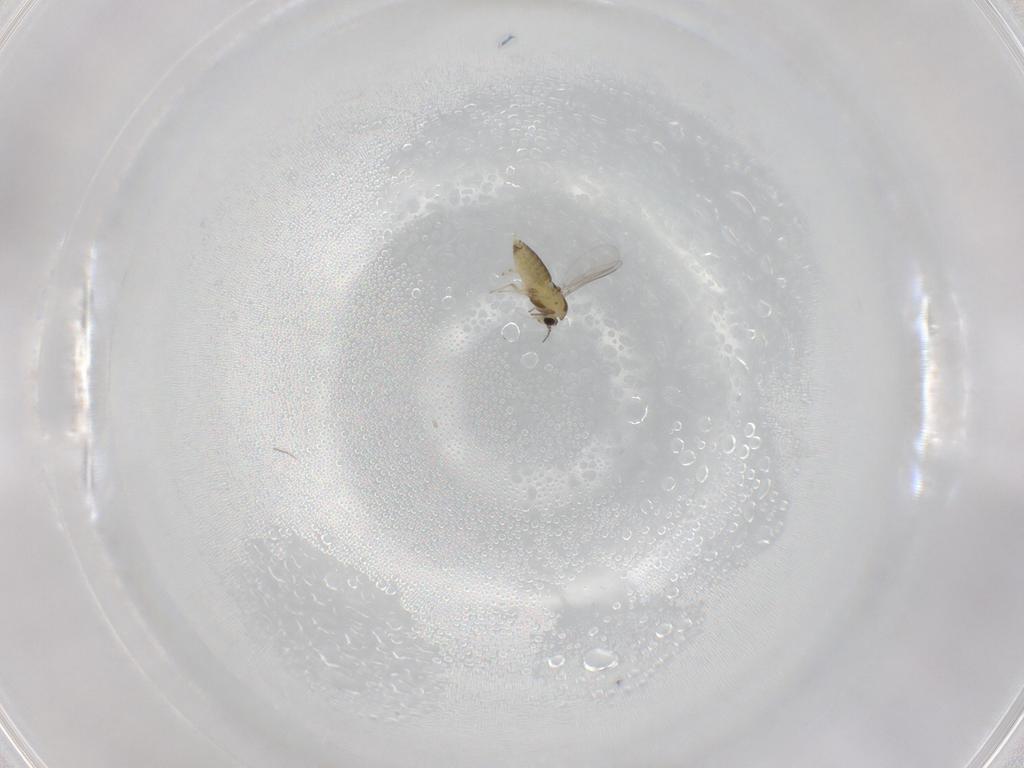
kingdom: Animalia
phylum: Arthropoda
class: Insecta
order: Diptera
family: Chironomidae
